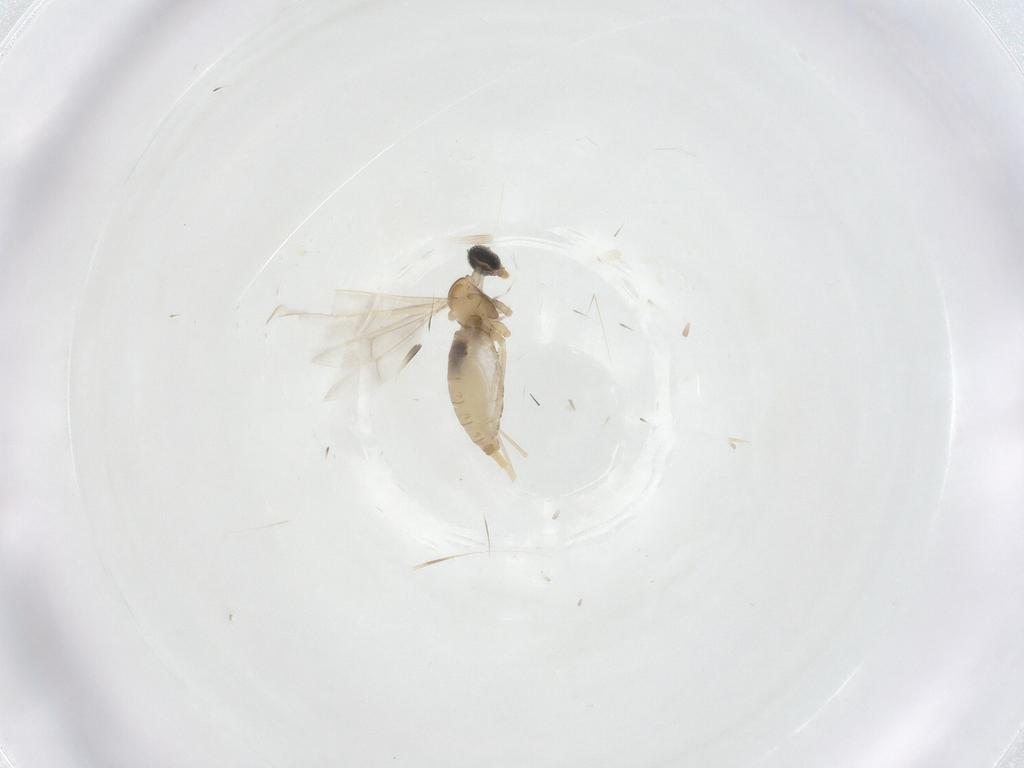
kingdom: Animalia
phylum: Arthropoda
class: Insecta
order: Diptera
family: Cecidomyiidae
